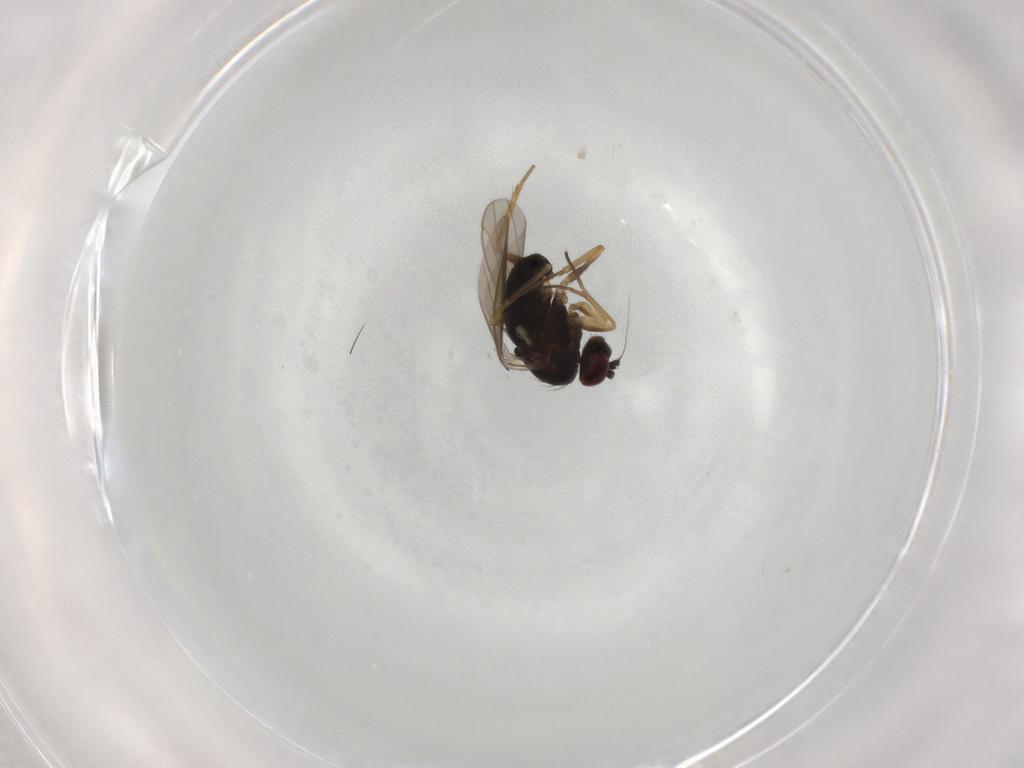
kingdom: Animalia
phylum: Arthropoda
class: Insecta
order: Diptera
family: Dolichopodidae
